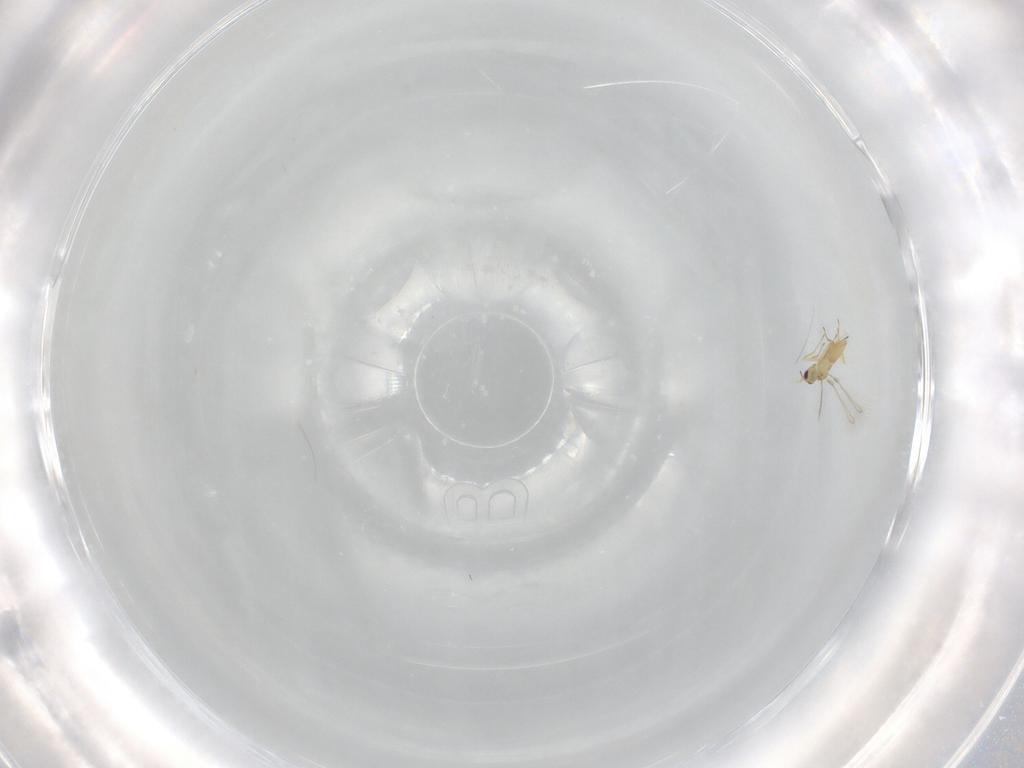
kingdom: Animalia
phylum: Arthropoda
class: Insecta
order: Hymenoptera
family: Mymaridae
